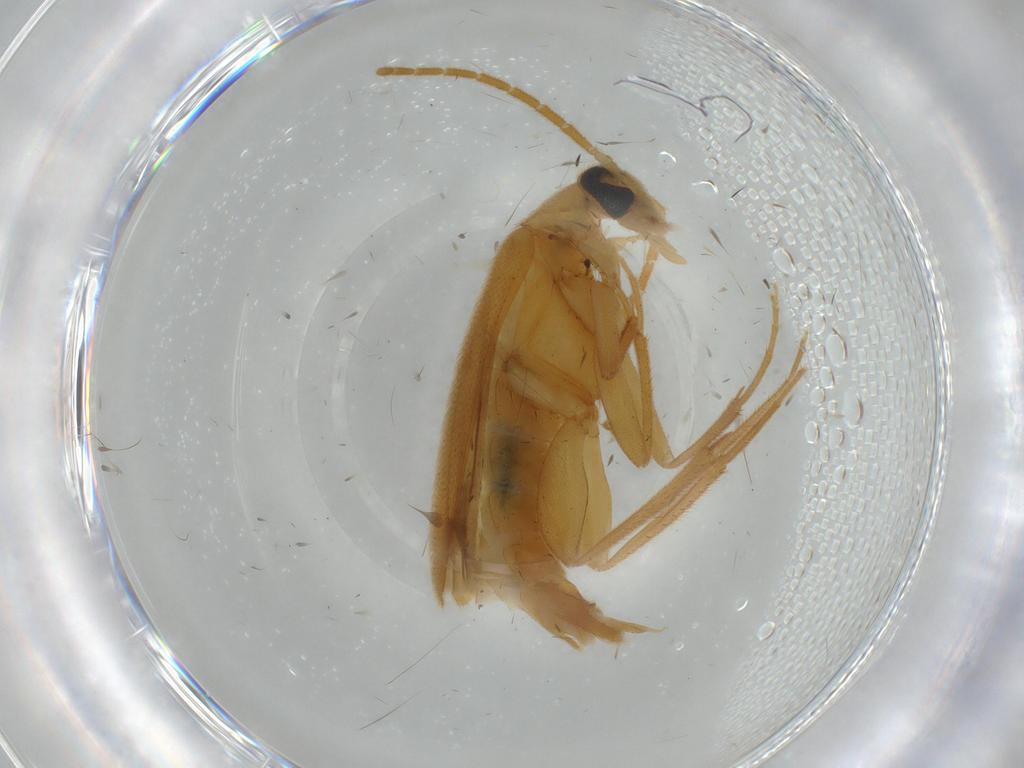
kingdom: Animalia
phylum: Arthropoda
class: Insecta
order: Coleoptera
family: Scraptiidae
